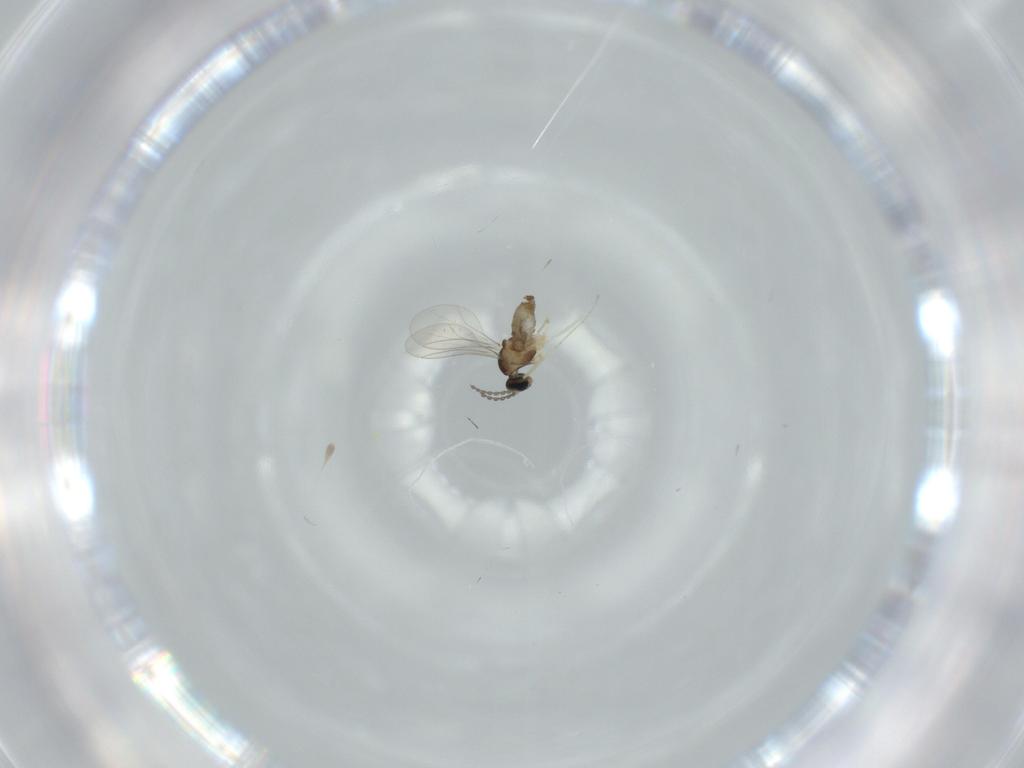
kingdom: Animalia
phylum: Arthropoda
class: Insecta
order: Diptera
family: Cecidomyiidae
